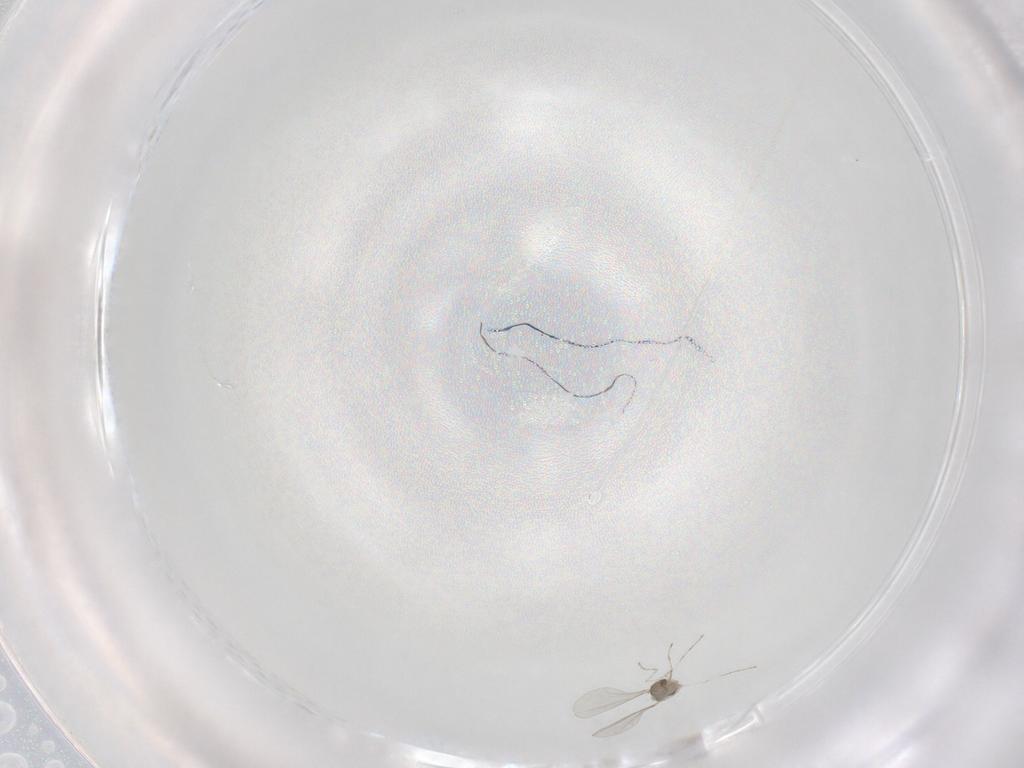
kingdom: Animalia
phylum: Arthropoda
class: Insecta
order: Diptera
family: Cecidomyiidae
